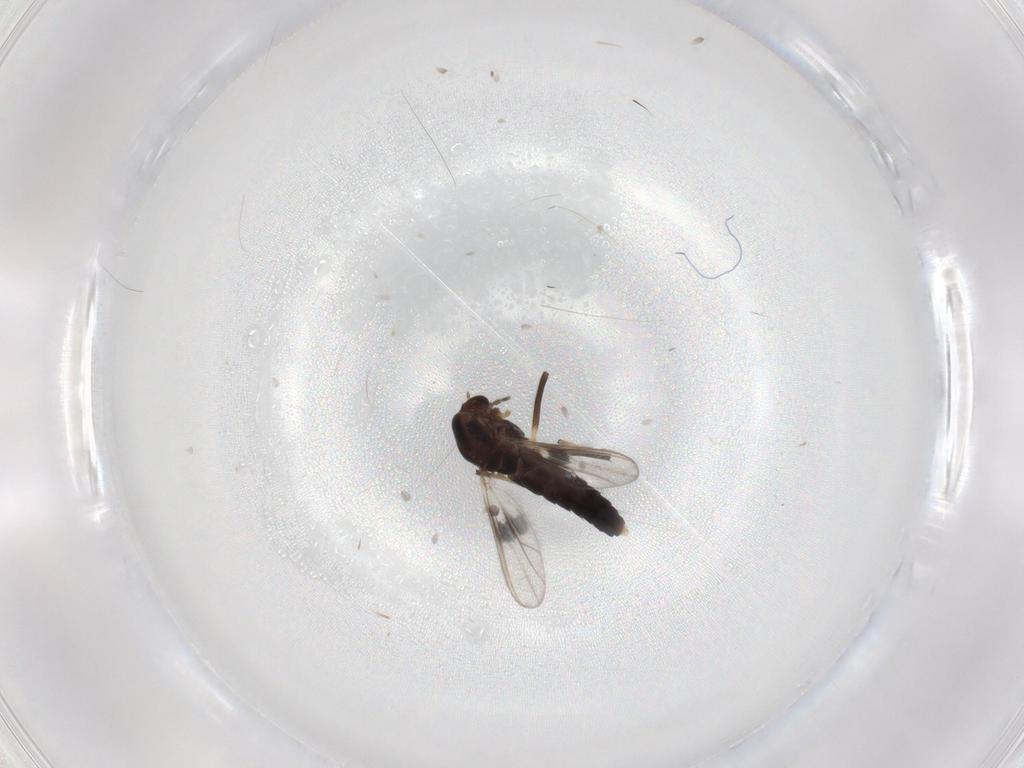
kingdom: Animalia
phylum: Arthropoda
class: Insecta
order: Diptera
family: Chironomidae
